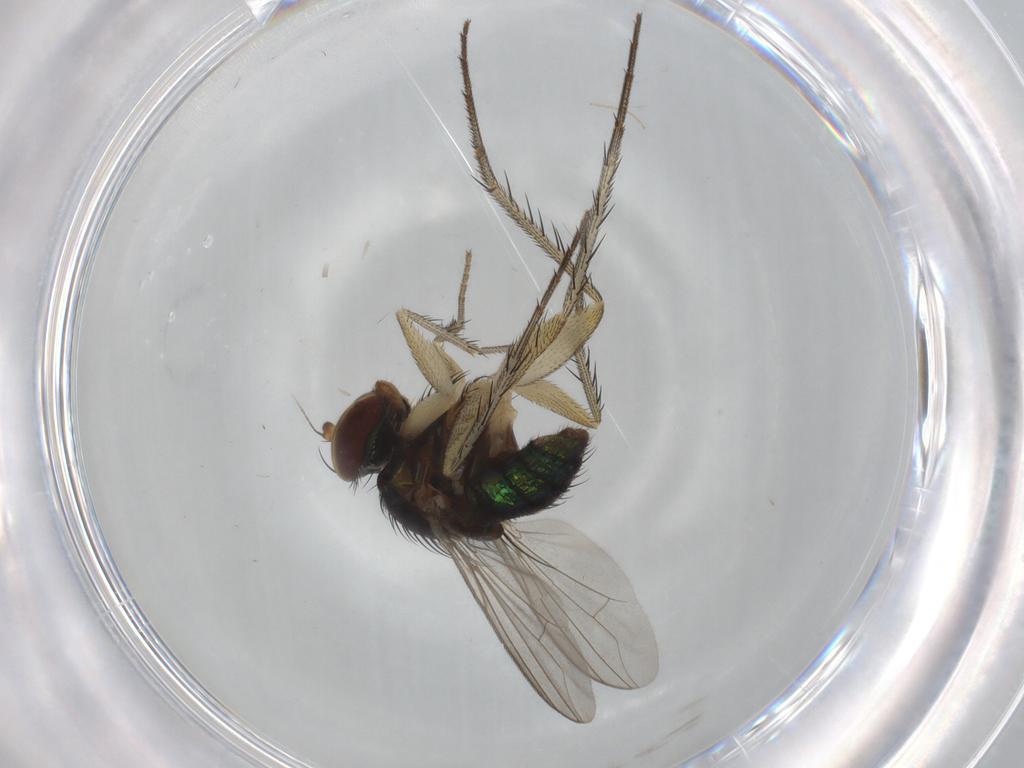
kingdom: Animalia
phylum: Arthropoda
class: Insecta
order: Diptera
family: Dolichopodidae
